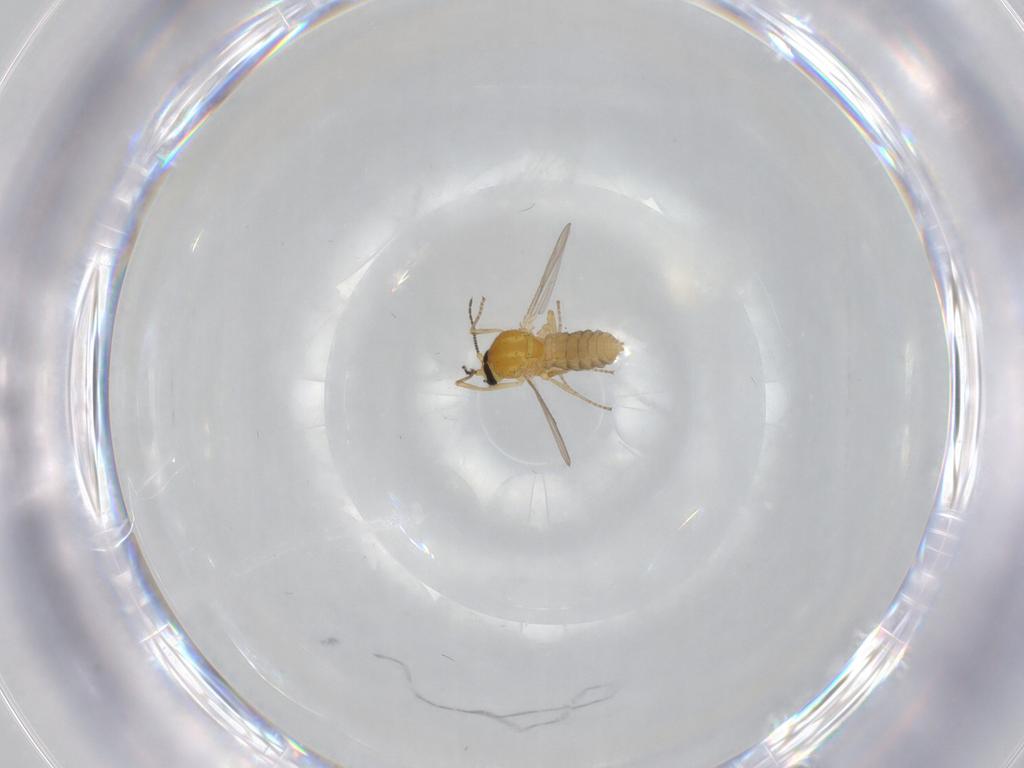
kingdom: Animalia
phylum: Arthropoda
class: Insecta
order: Diptera
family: Ceratopogonidae
